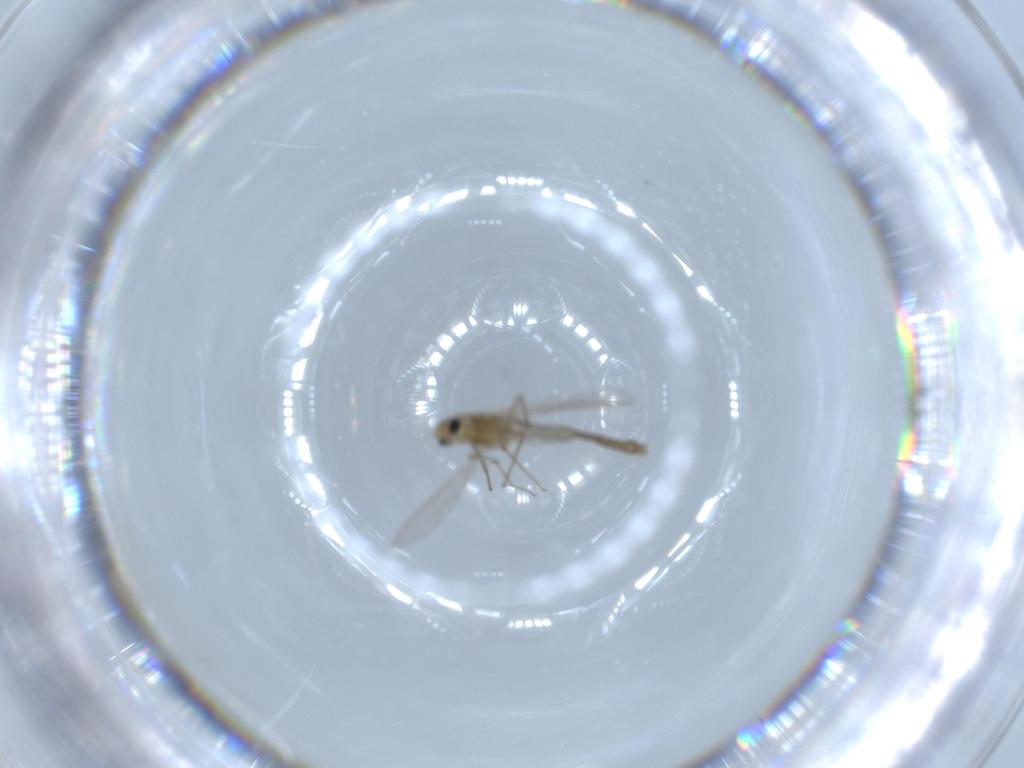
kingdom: Animalia
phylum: Arthropoda
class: Insecta
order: Diptera
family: Chironomidae
